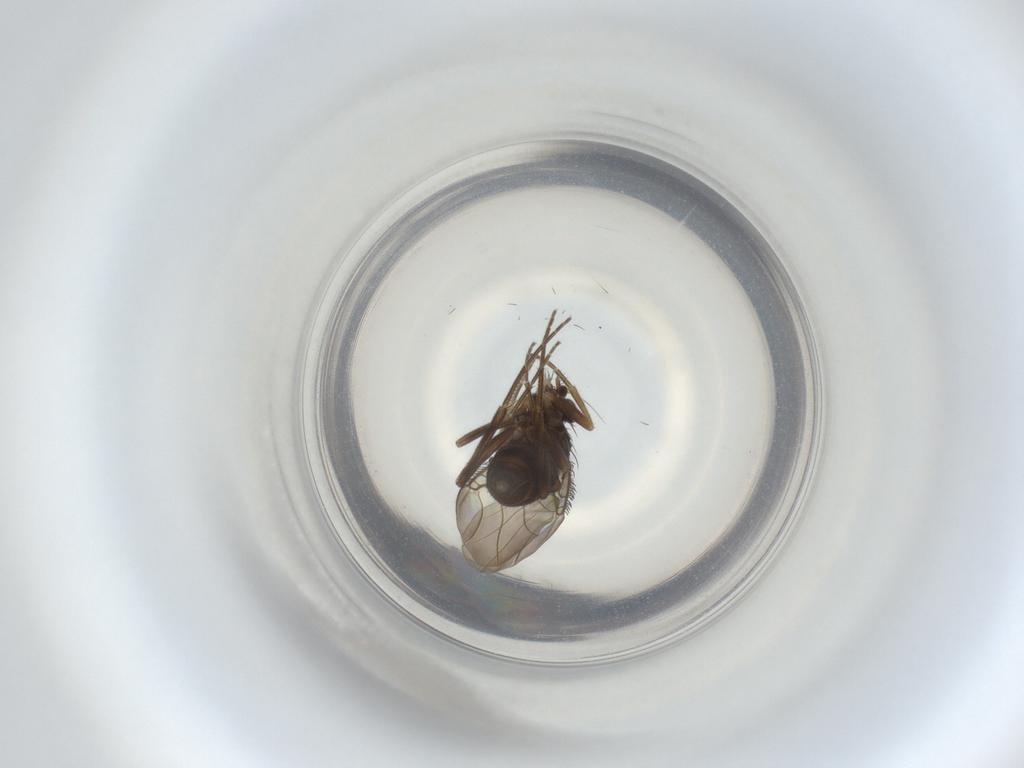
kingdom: Animalia
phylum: Arthropoda
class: Insecta
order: Diptera
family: Phoridae
